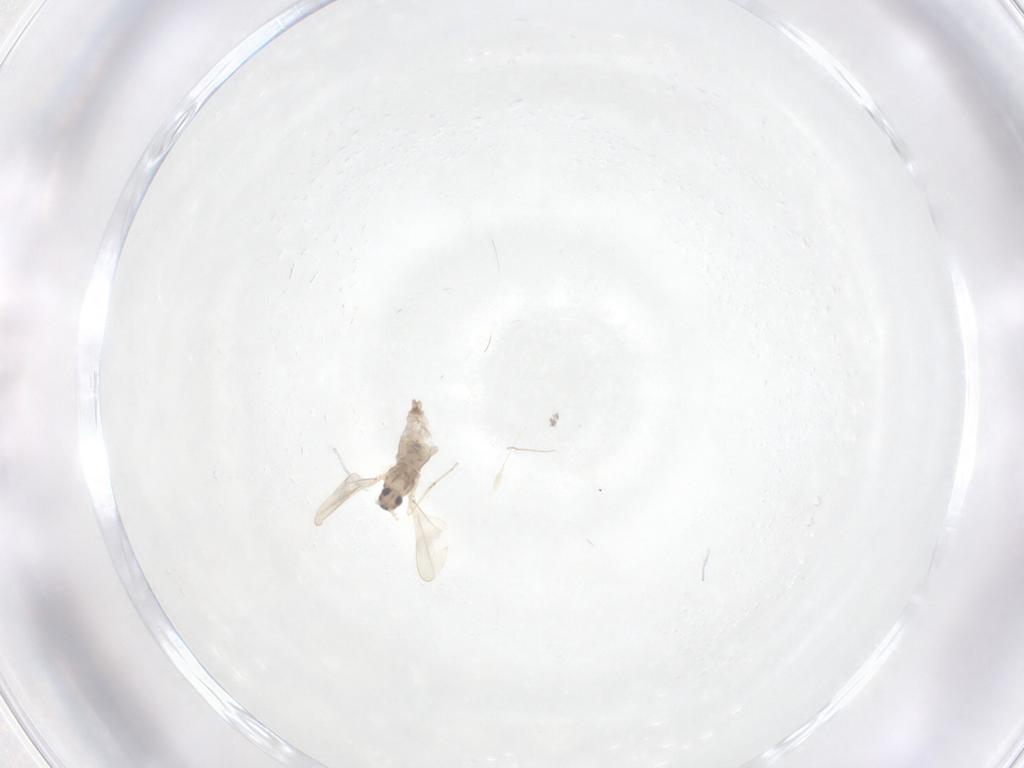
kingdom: Animalia
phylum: Arthropoda
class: Insecta
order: Diptera
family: Cecidomyiidae
